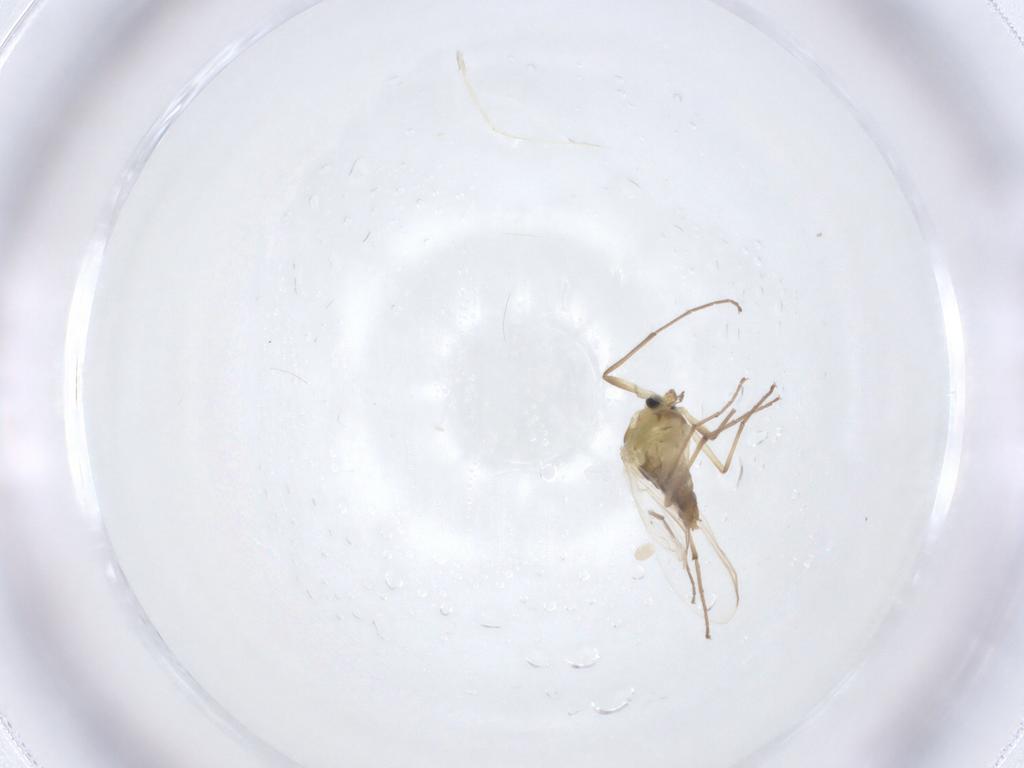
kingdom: Animalia
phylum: Arthropoda
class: Insecta
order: Diptera
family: Chironomidae
